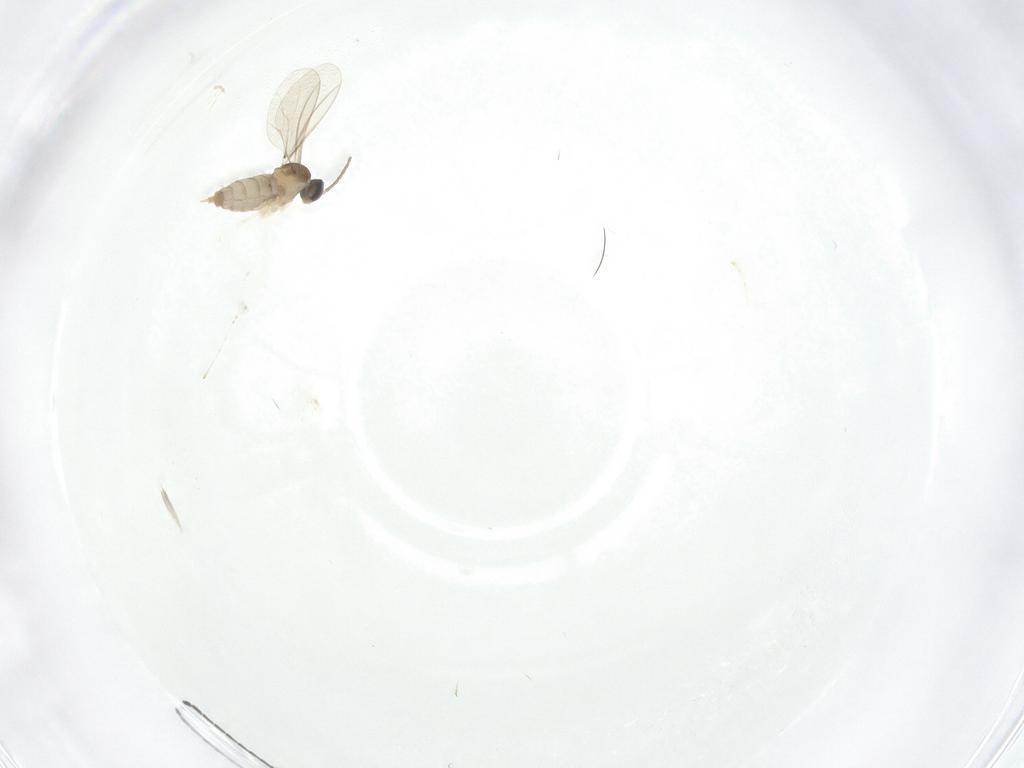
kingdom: Animalia
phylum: Arthropoda
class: Insecta
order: Diptera
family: Sciaridae
